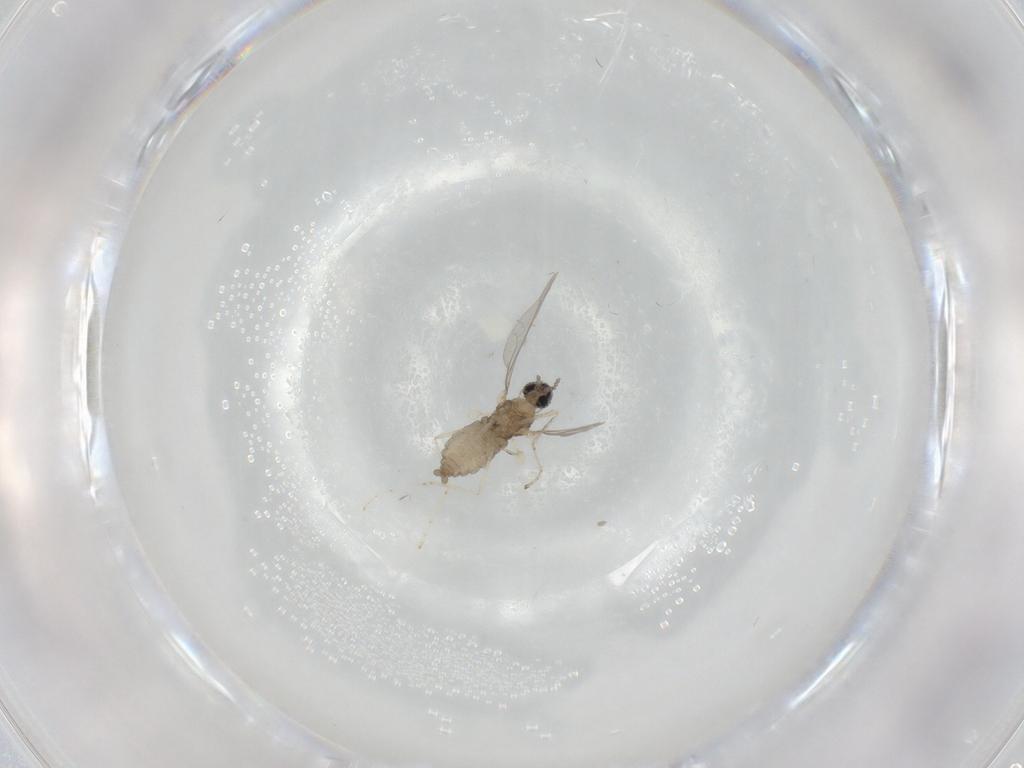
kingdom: Animalia
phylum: Arthropoda
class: Insecta
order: Diptera
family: Cecidomyiidae
